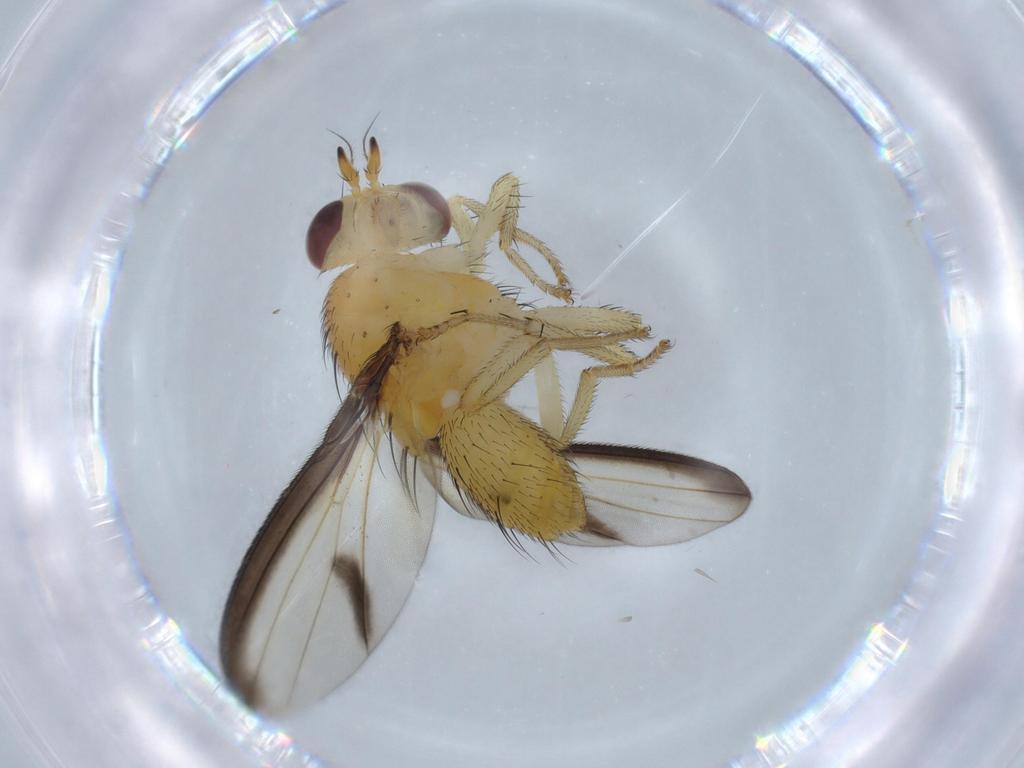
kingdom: Animalia
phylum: Arthropoda
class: Insecta
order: Diptera
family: Lauxaniidae
